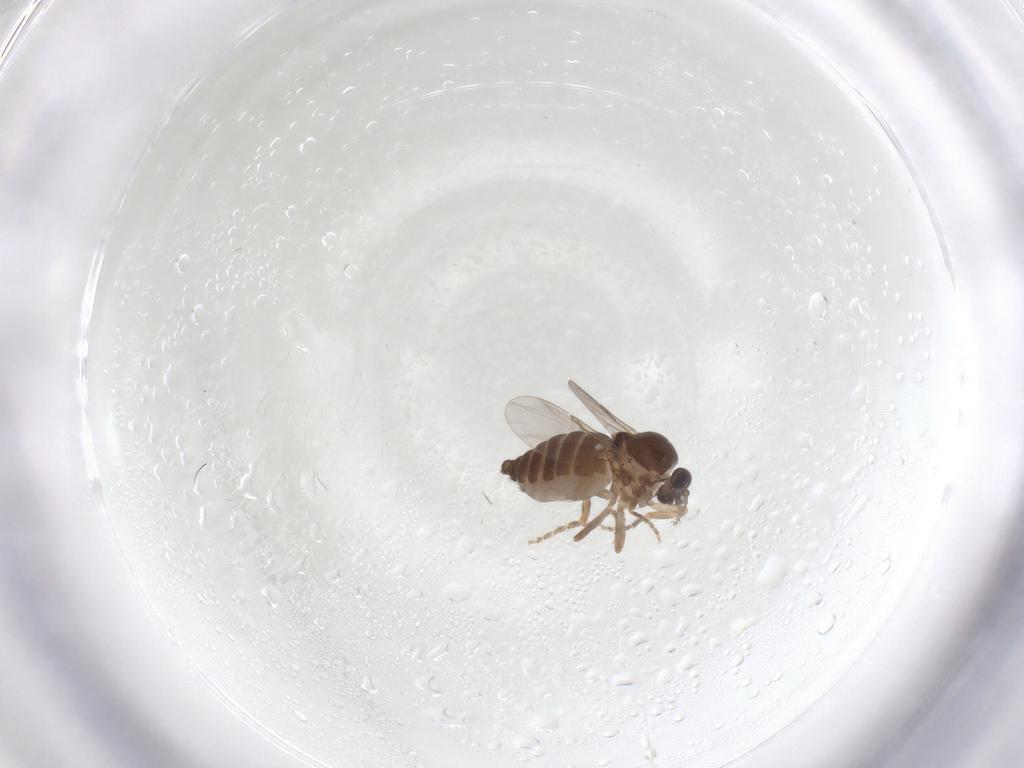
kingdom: Animalia
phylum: Arthropoda
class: Insecta
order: Diptera
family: Ceratopogonidae
